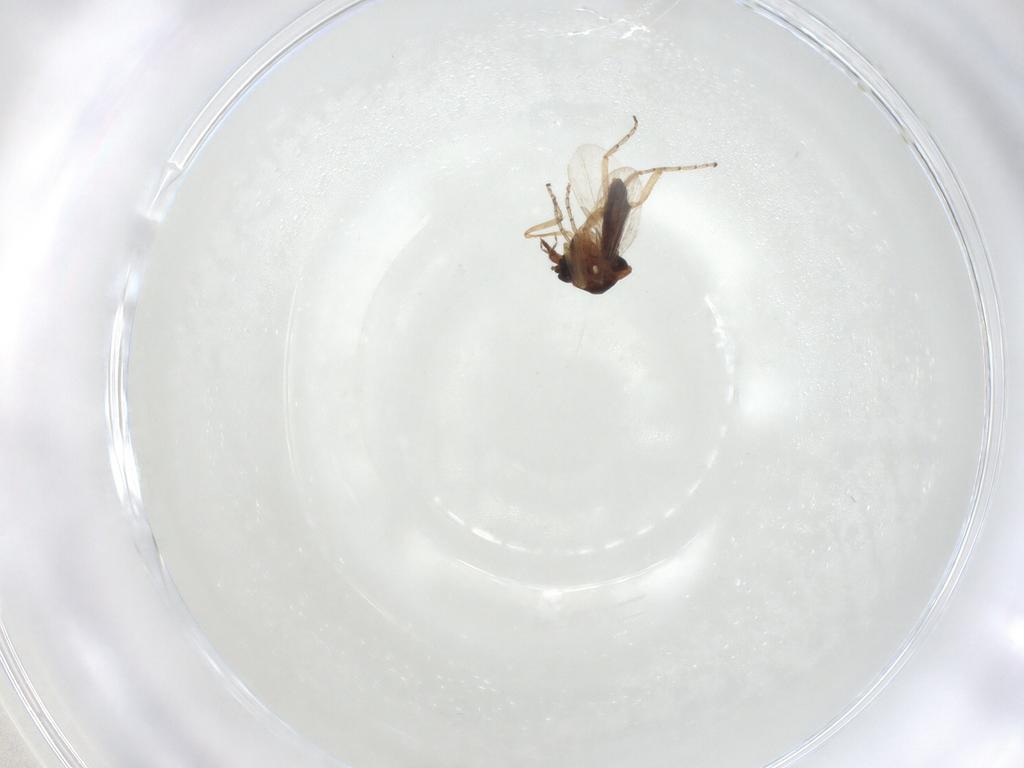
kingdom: Animalia
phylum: Arthropoda
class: Insecta
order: Diptera
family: Ceratopogonidae
